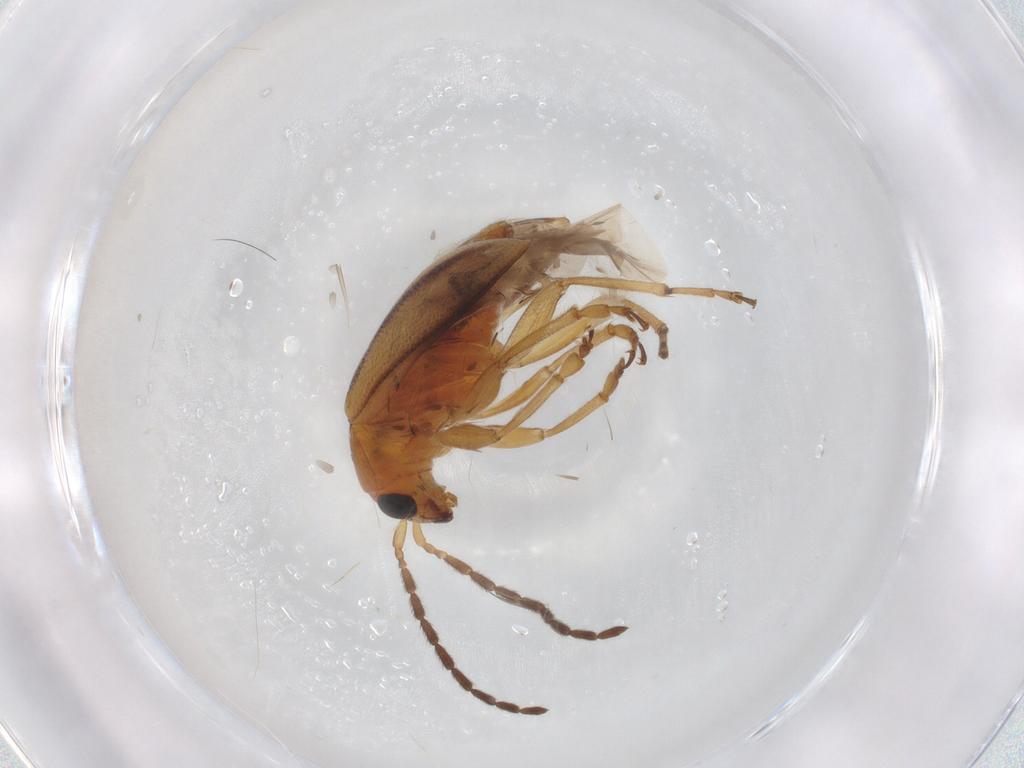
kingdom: Animalia
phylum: Arthropoda
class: Insecta
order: Coleoptera
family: Chrysomelidae
